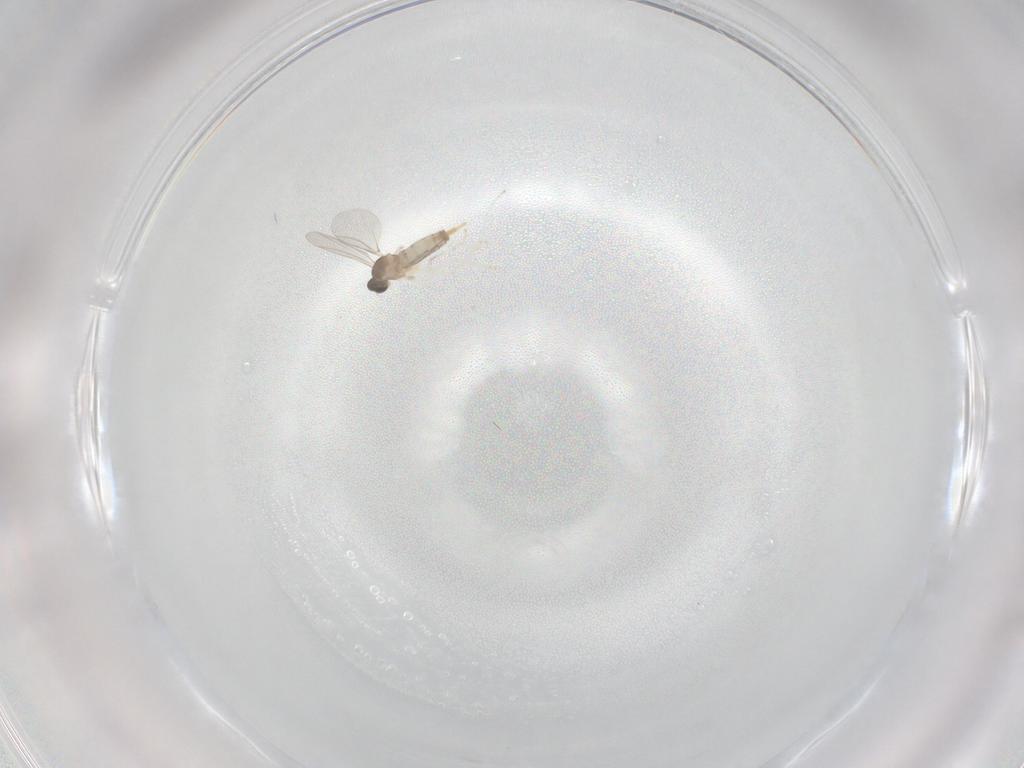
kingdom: Animalia
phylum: Arthropoda
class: Insecta
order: Diptera
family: Cecidomyiidae
